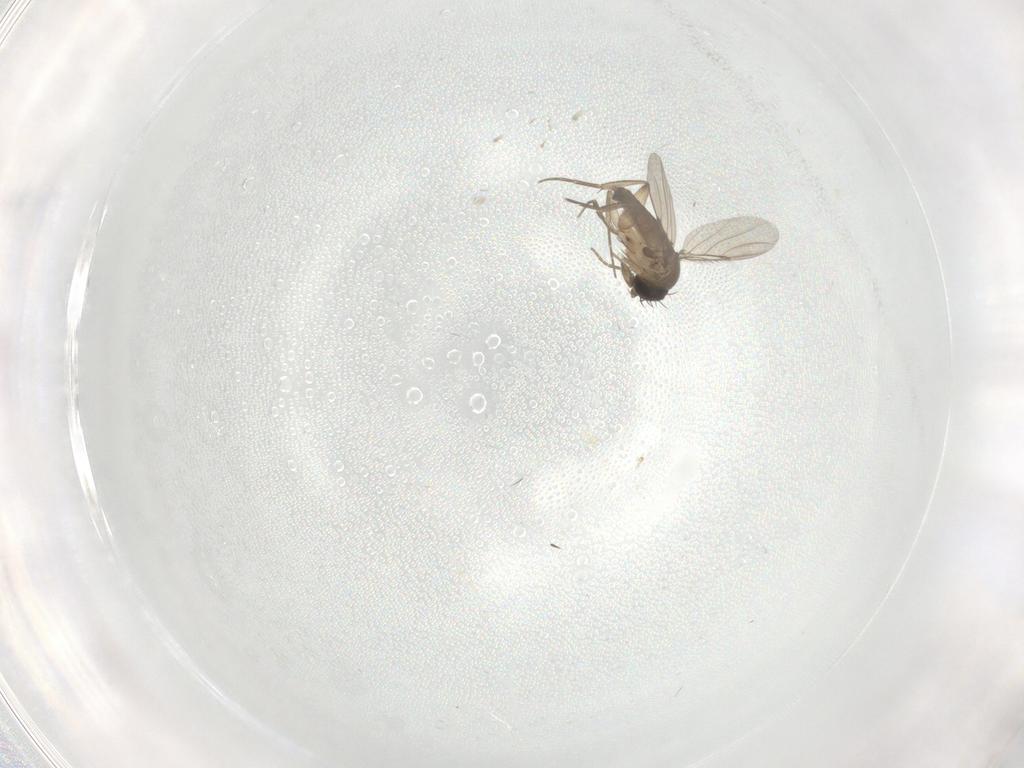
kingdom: Animalia
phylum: Arthropoda
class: Insecta
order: Diptera
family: Phoridae
